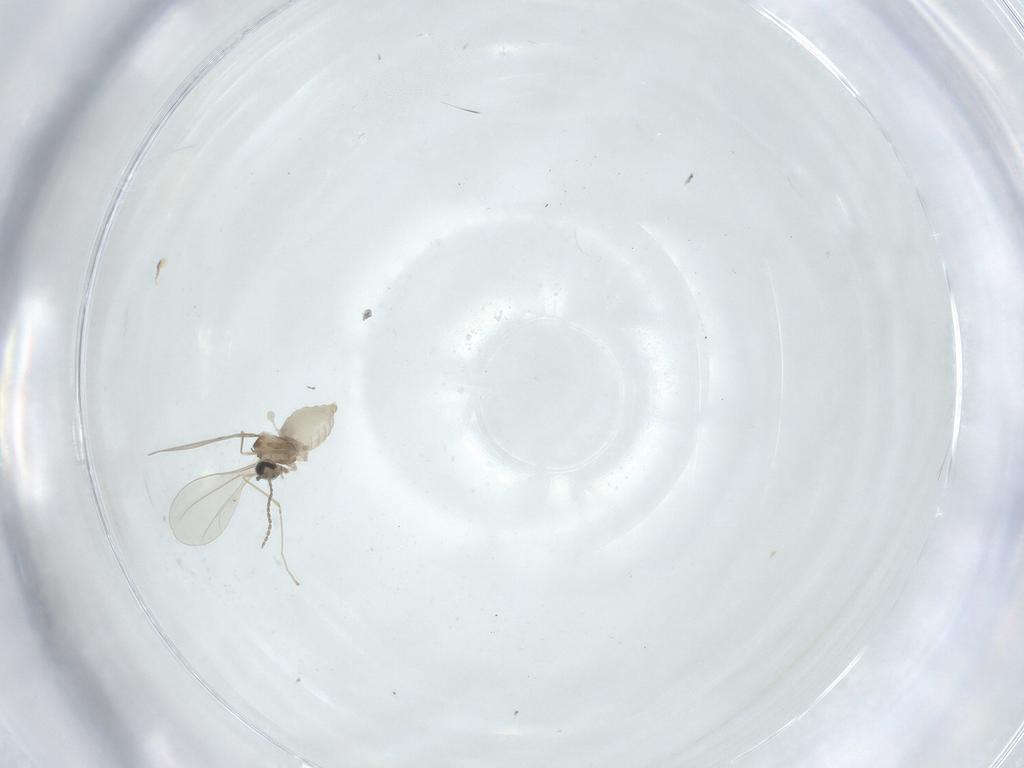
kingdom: Animalia
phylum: Arthropoda
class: Insecta
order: Diptera
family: Cecidomyiidae
